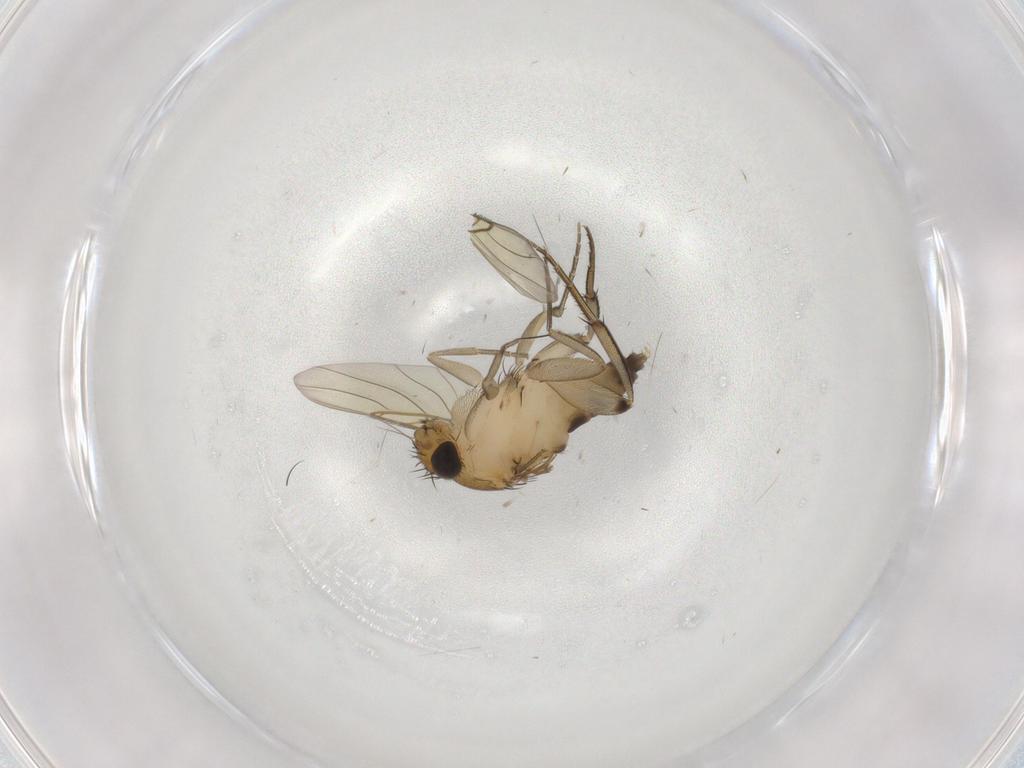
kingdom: Animalia
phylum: Arthropoda
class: Insecta
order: Diptera
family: Phoridae
